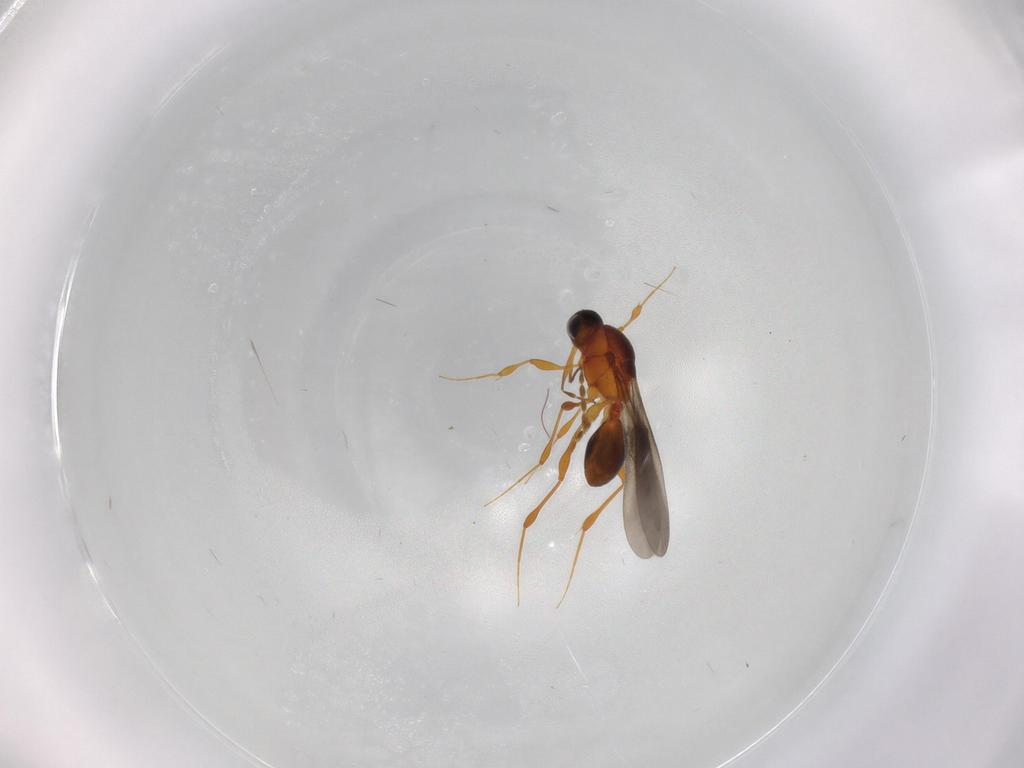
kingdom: Animalia
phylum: Arthropoda
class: Insecta
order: Hymenoptera
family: Platygastridae
